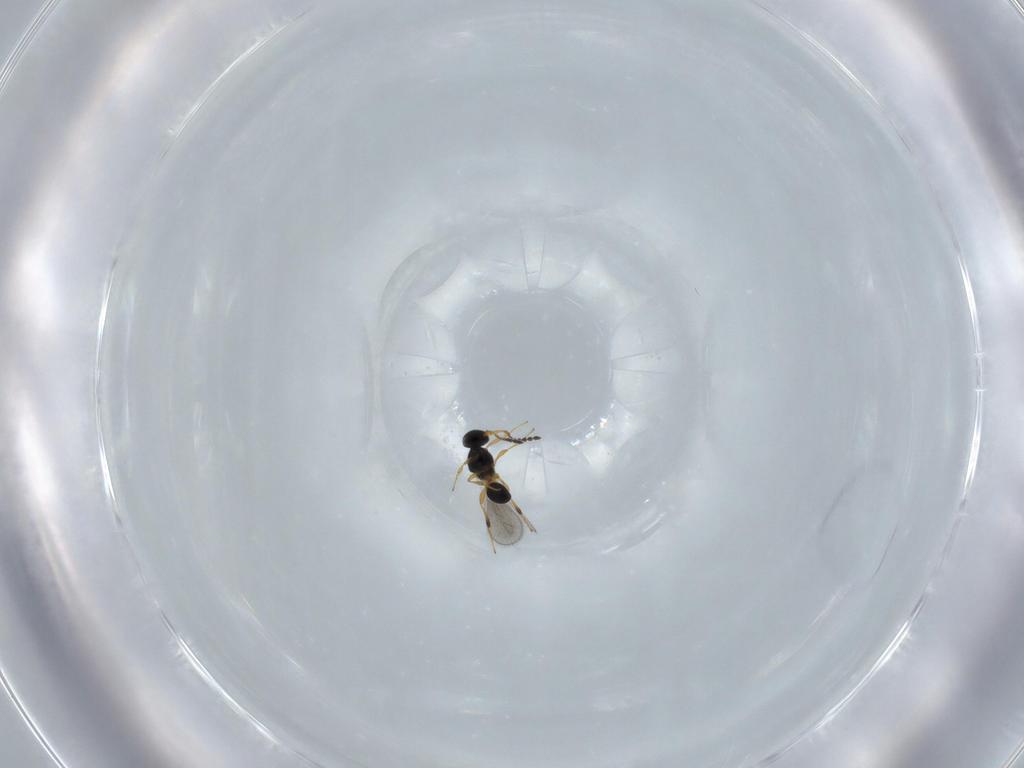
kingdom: Animalia
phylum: Arthropoda
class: Insecta
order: Hymenoptera
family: Platygastridae
